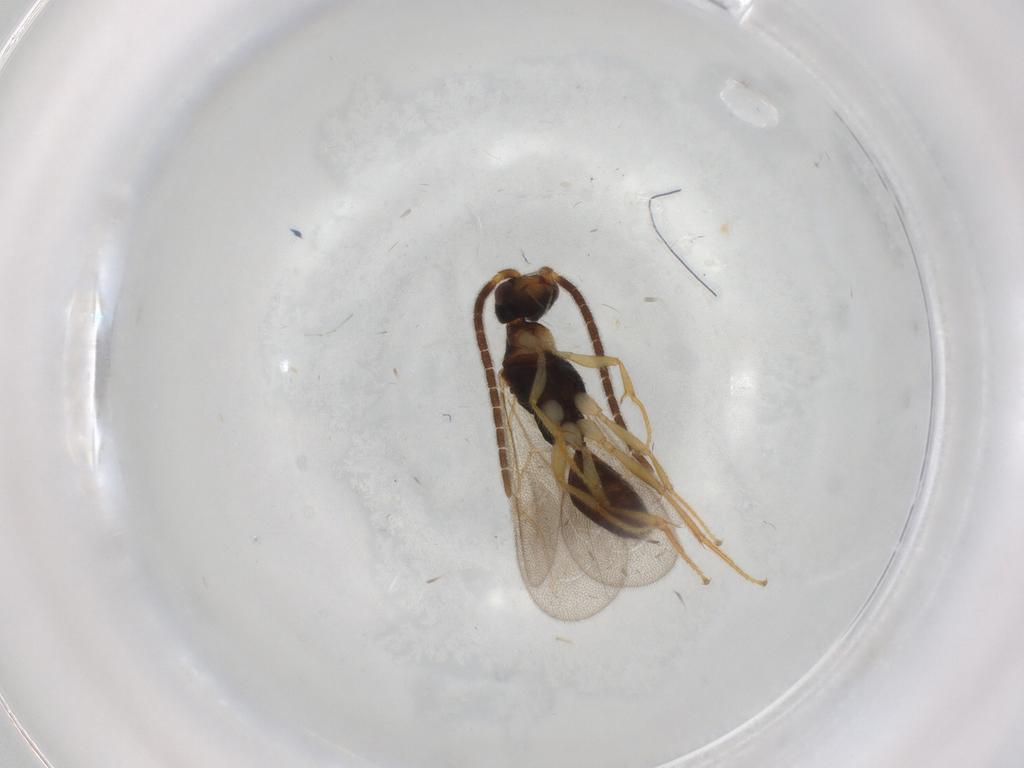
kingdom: Animalia
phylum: Arthropoda
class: Insecta
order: Hymenoptera
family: Bethylidae
